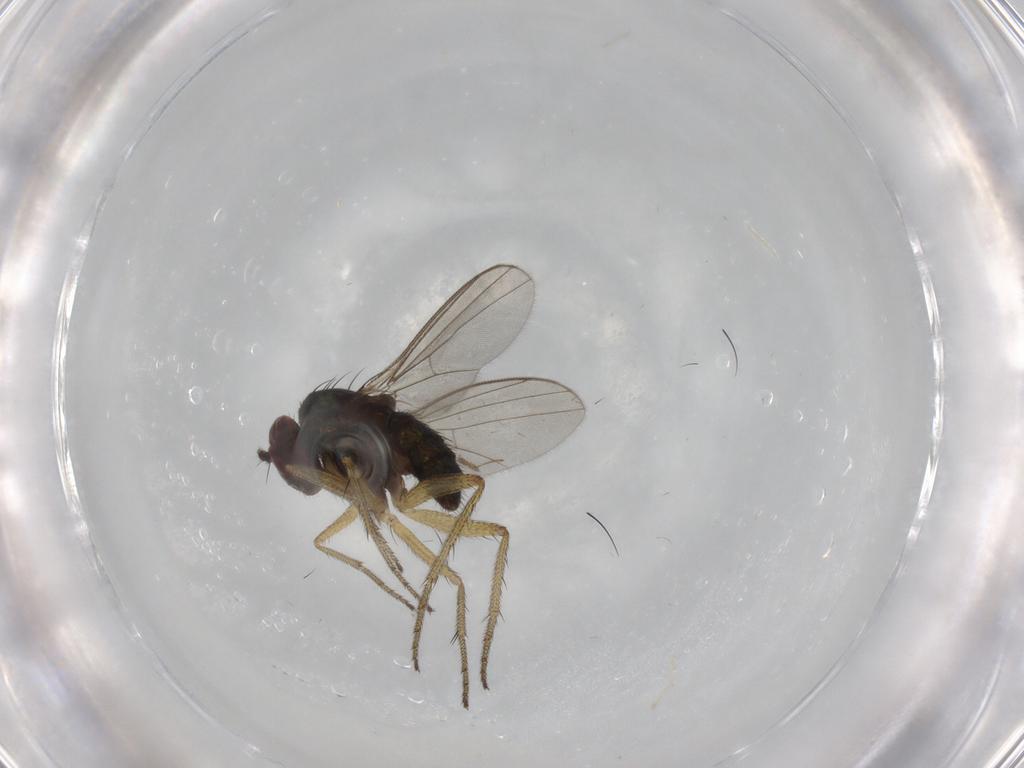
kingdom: Animalia
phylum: Arthropoda
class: Insecta
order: Diptera
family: Dolichopodidae
